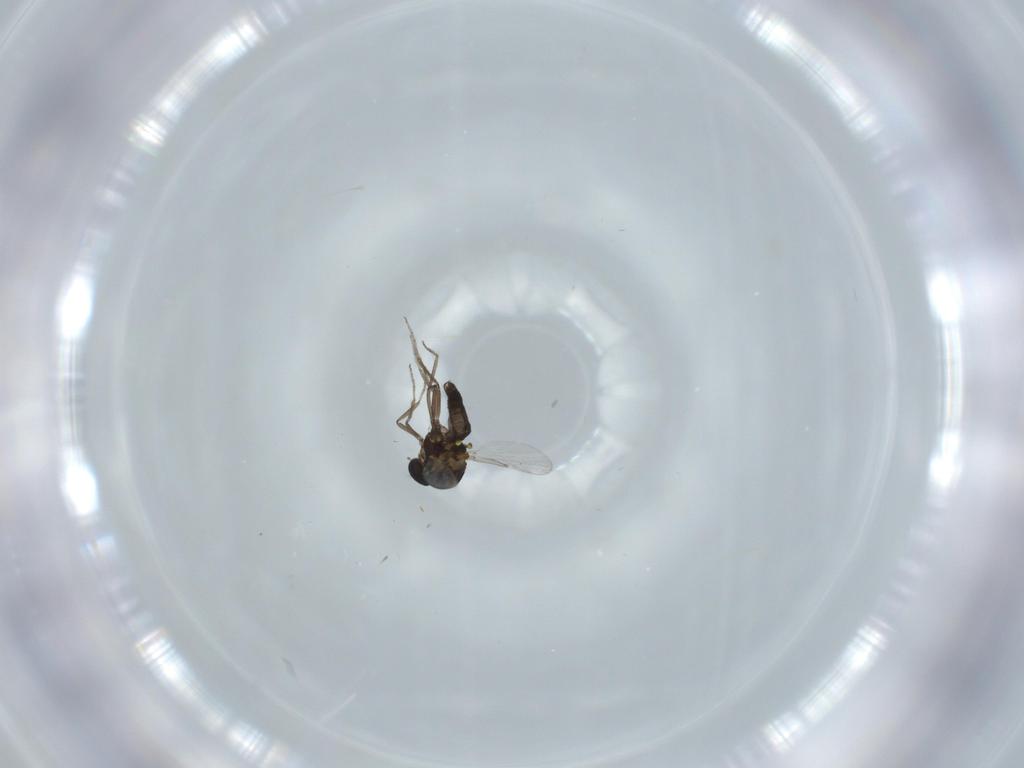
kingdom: Animalia
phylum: Arthropoda
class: Insecta
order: Diptera
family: Ceratopogonidae
